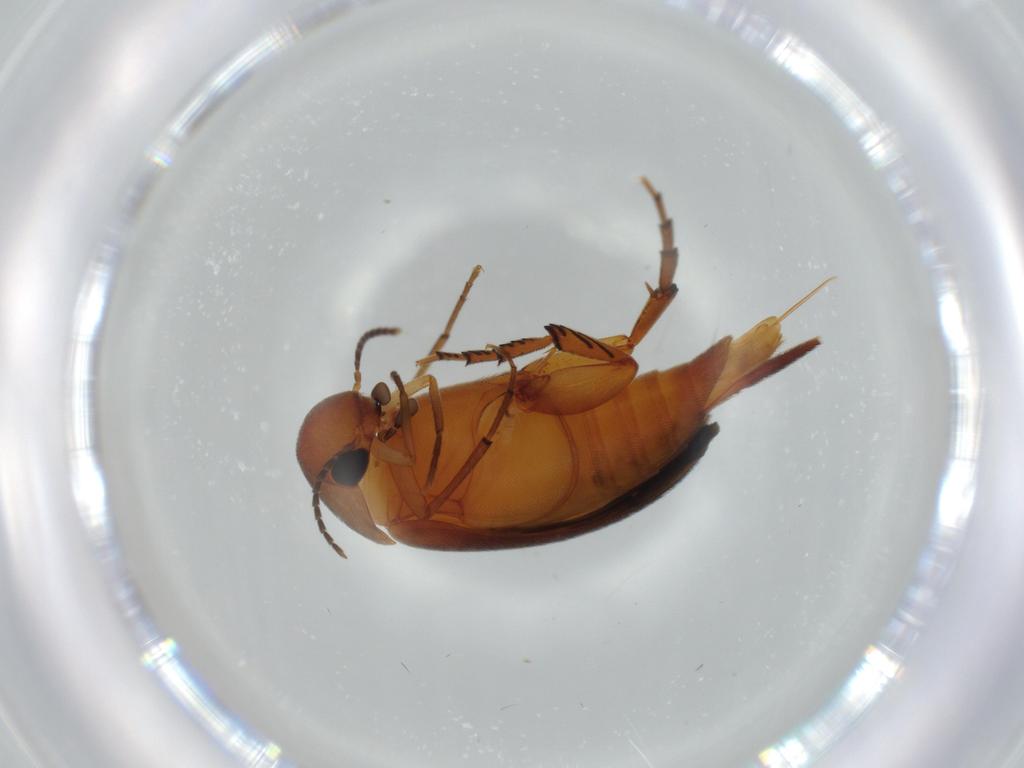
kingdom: Animalia
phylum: Arthropoda
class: Insecta
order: Coleoptera
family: Mordellidae
